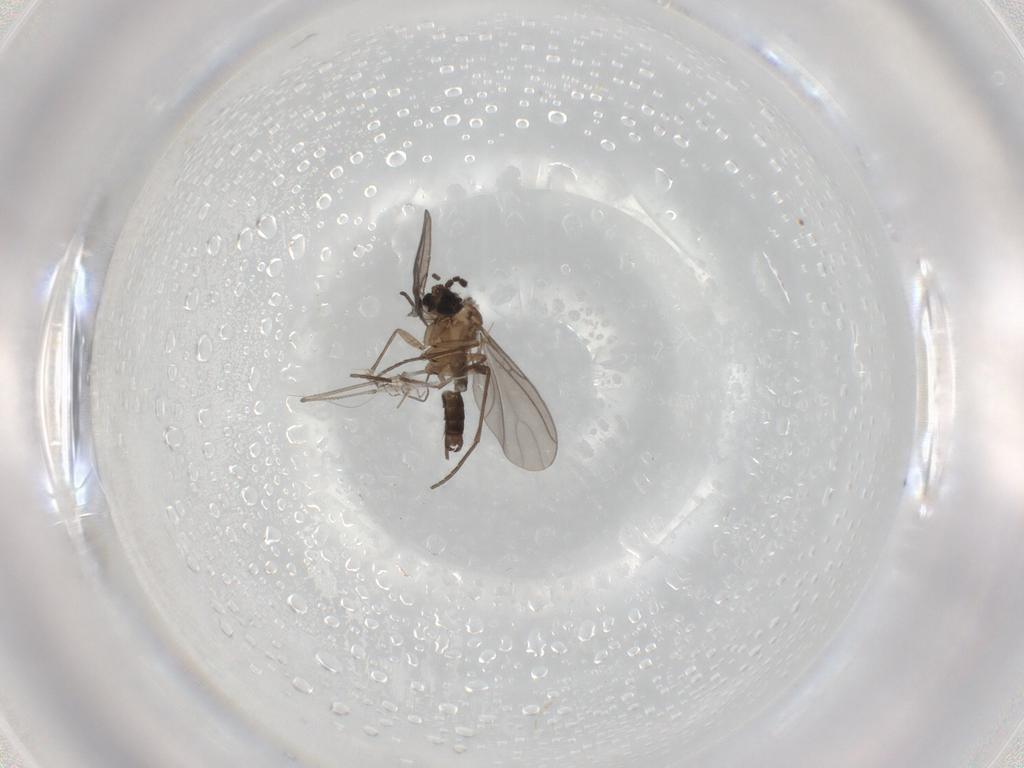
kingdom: Animalia
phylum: Arthropoda
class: Insecta
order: Diptera
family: Sciaridae
